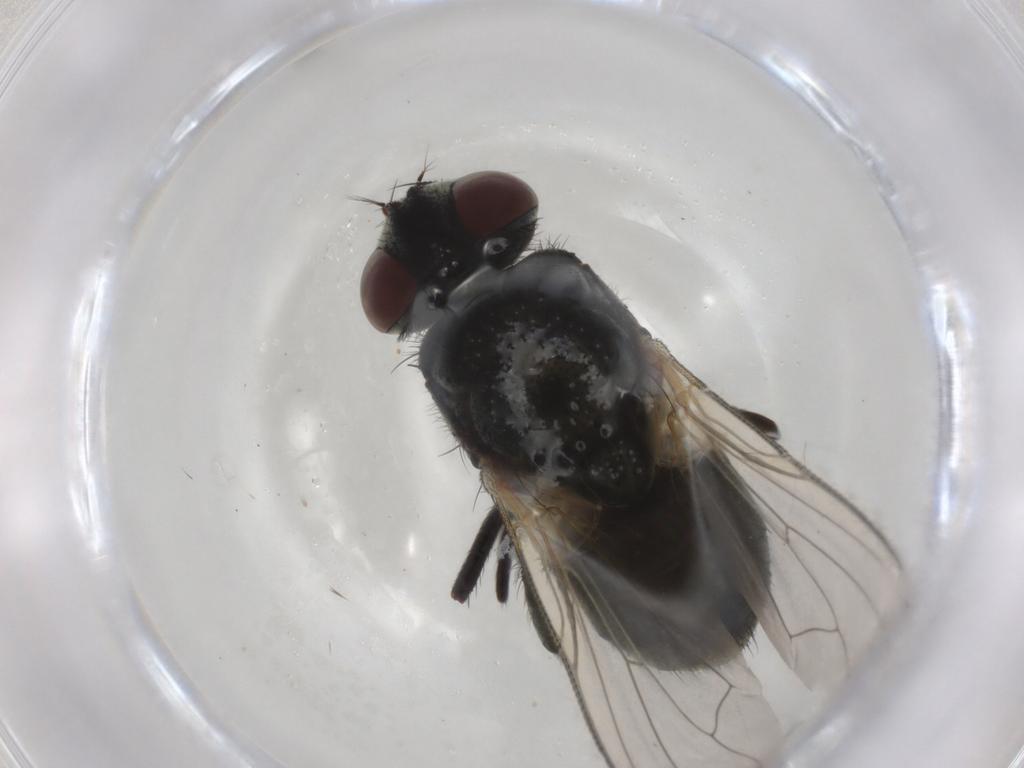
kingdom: Animalia
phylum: Arthropoda
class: Insecta
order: Diptera
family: Muscidae
